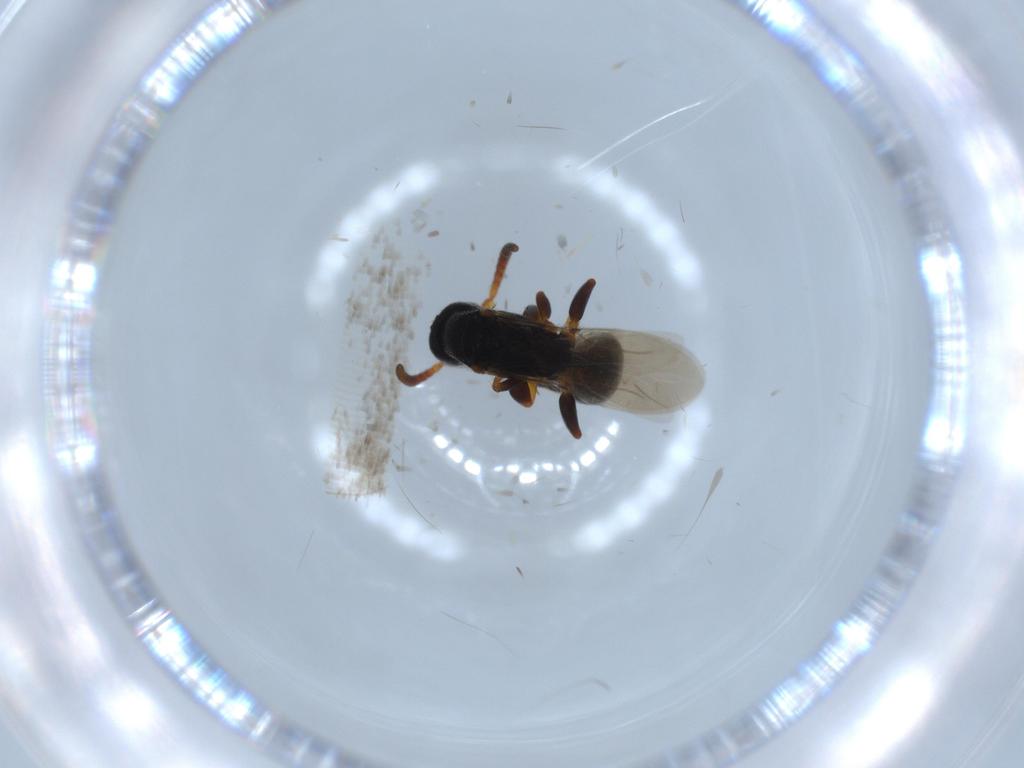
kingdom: Animalia
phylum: Arthropoda
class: Insecta
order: Hymenoptera
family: Bethylidae
